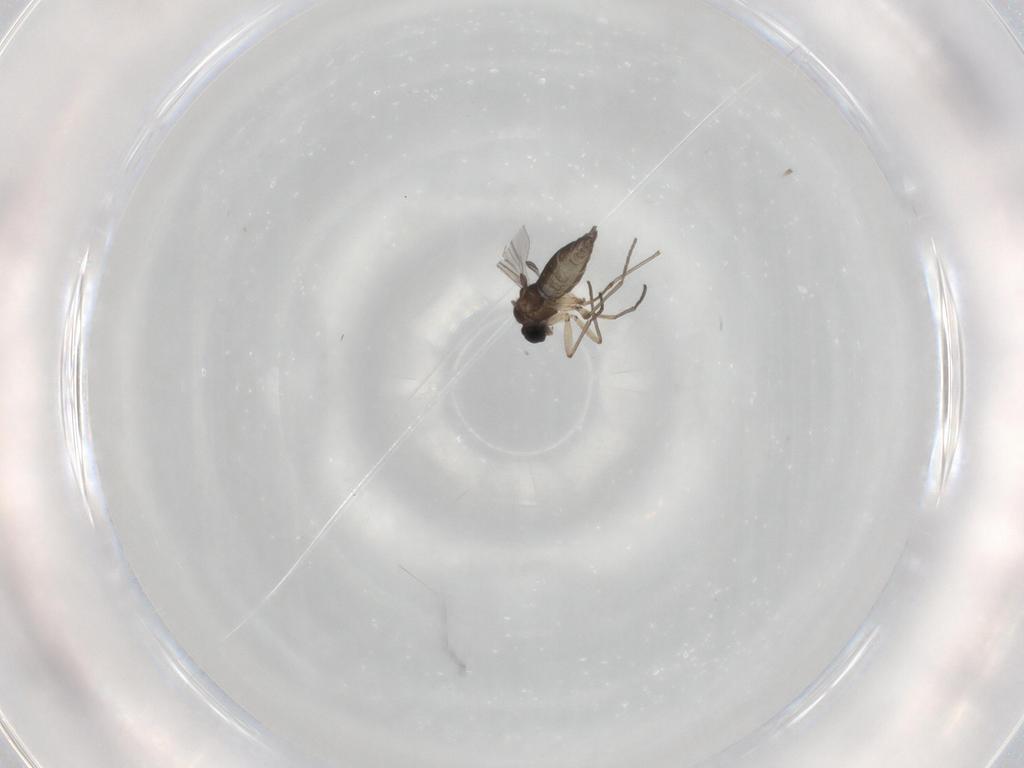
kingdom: Animalia
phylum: Arthropoda
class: Insecta
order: Diptera
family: Sciaridae
